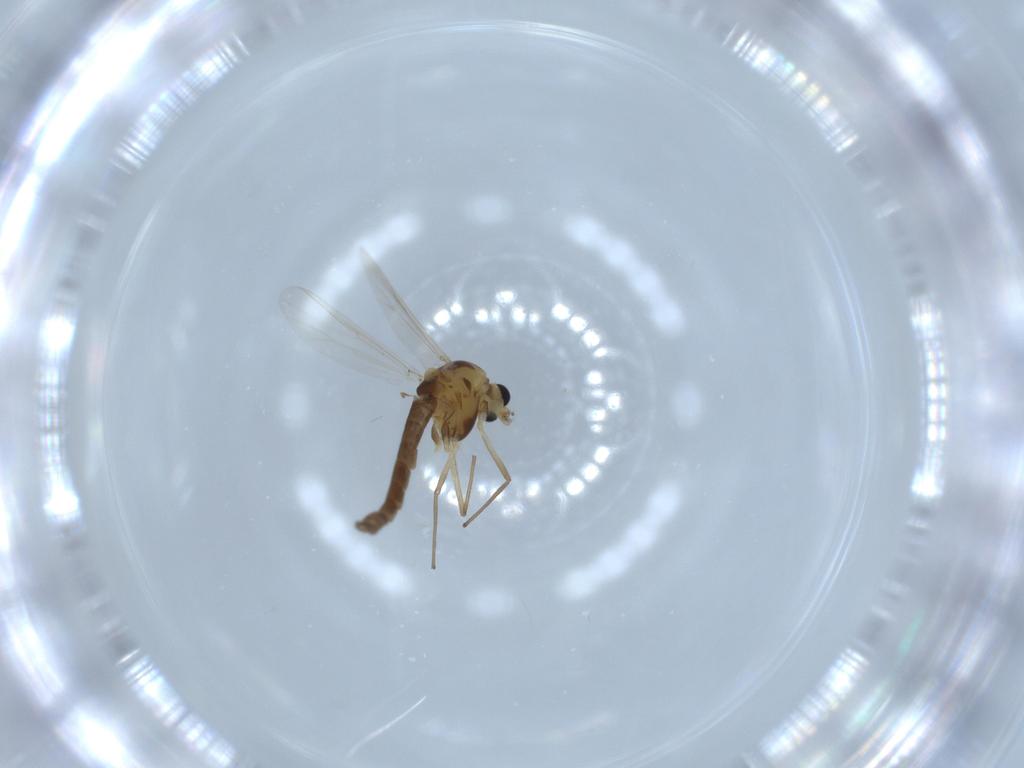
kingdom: Animalia
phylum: Arthropoda
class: Insecta
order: Diptera
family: Chironomidae
